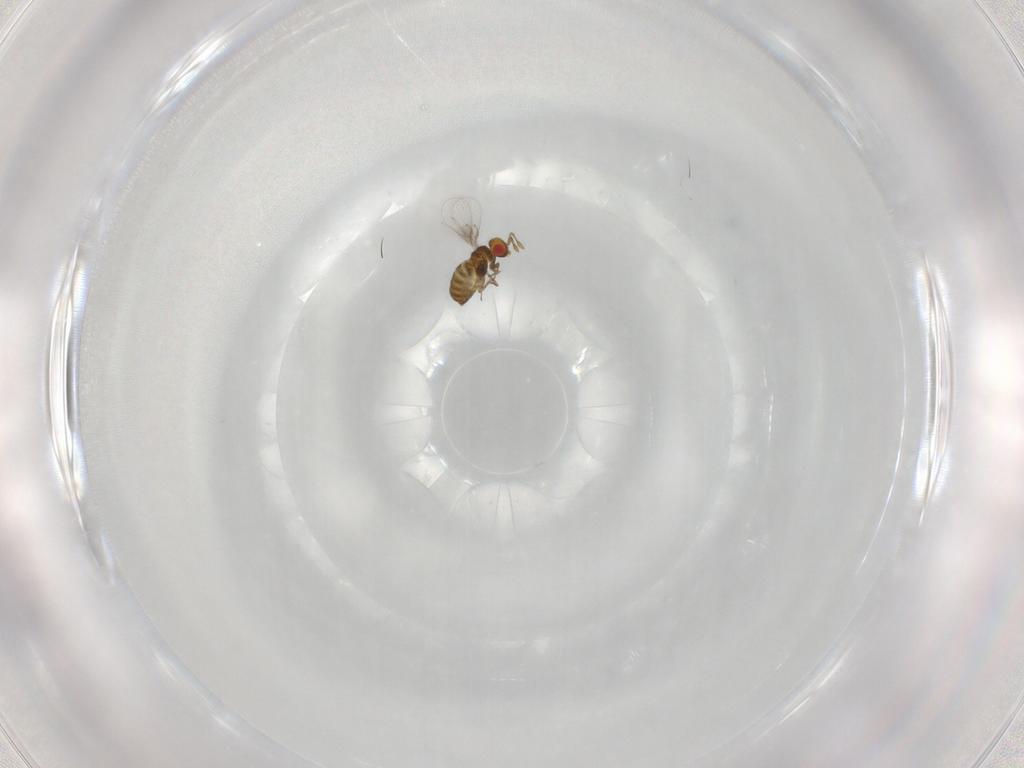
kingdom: Animalia
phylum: Arthropoda
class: Insecta
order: Hymenoptera
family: Trichogrammatidae
